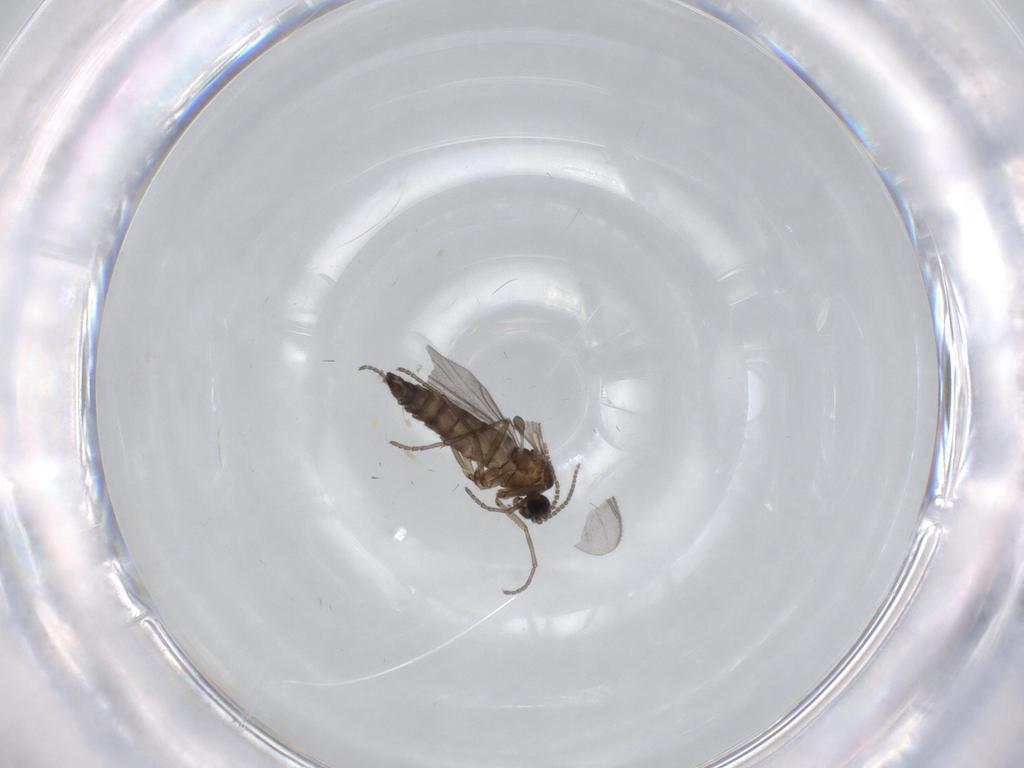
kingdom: Animalia
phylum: Arthropoda
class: Insecta
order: Diptera
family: Sciaridae
